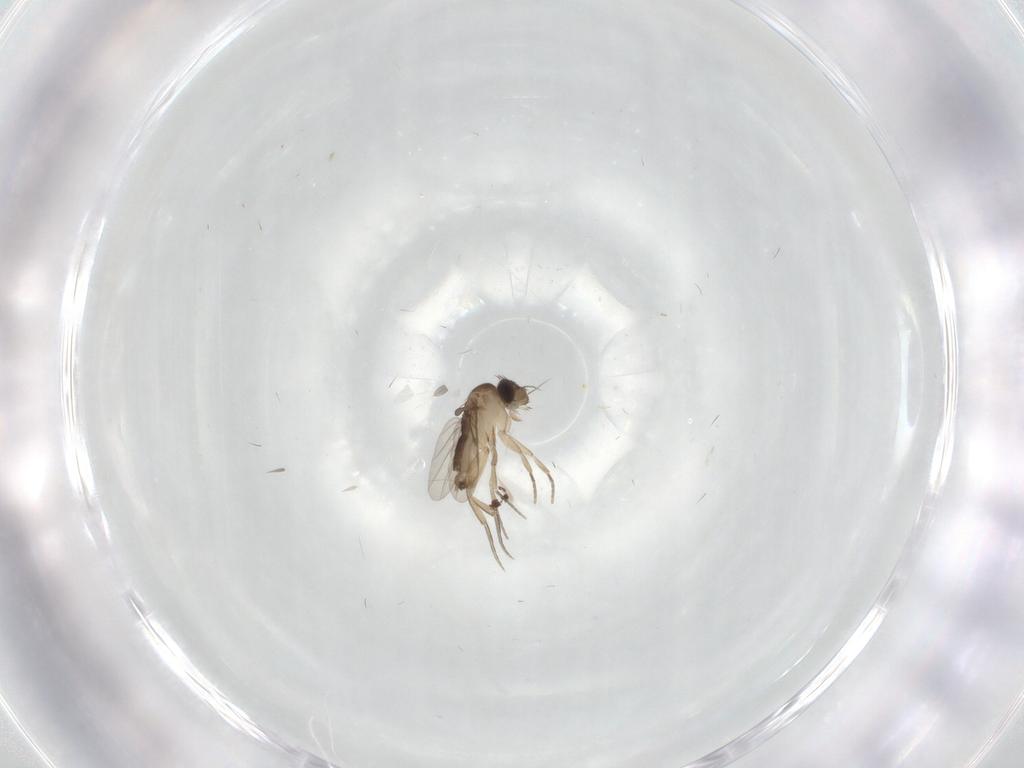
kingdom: Animalia
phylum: Arthropoda
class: Insecta
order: Diptera
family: Phoridae
